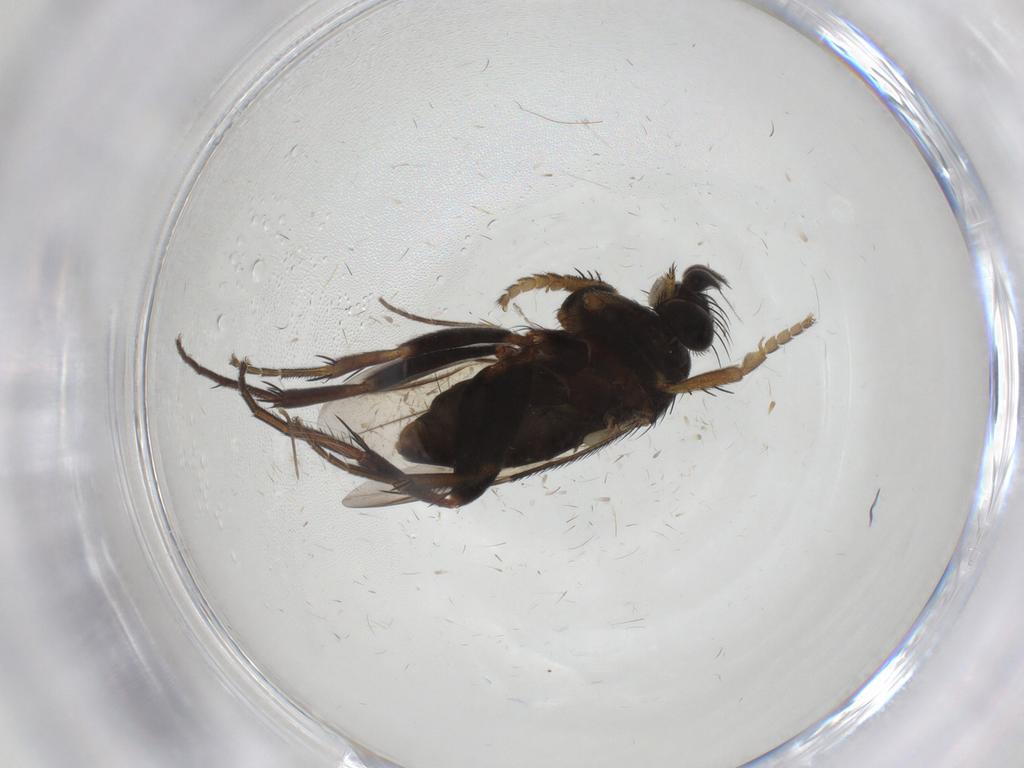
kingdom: Animalia
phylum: Arthropoda
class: Insecta
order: Diptera
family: Phoridae
